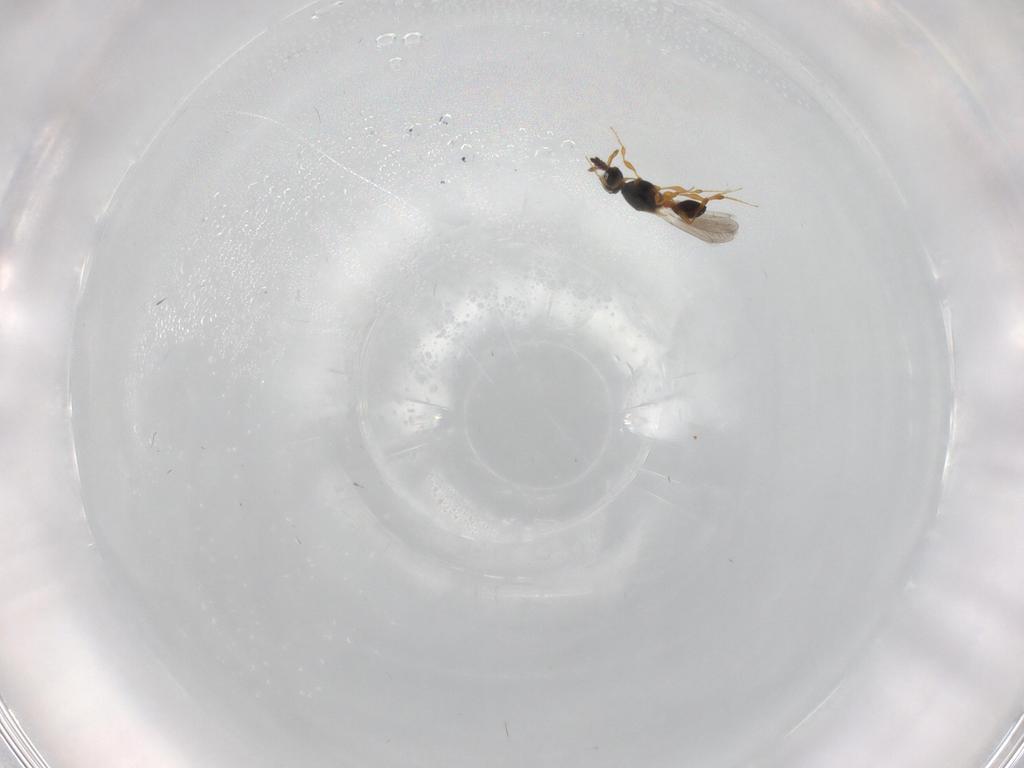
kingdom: Animalia
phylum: Arthropoda
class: Insecta
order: Hymenoptera
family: Platygastridae
